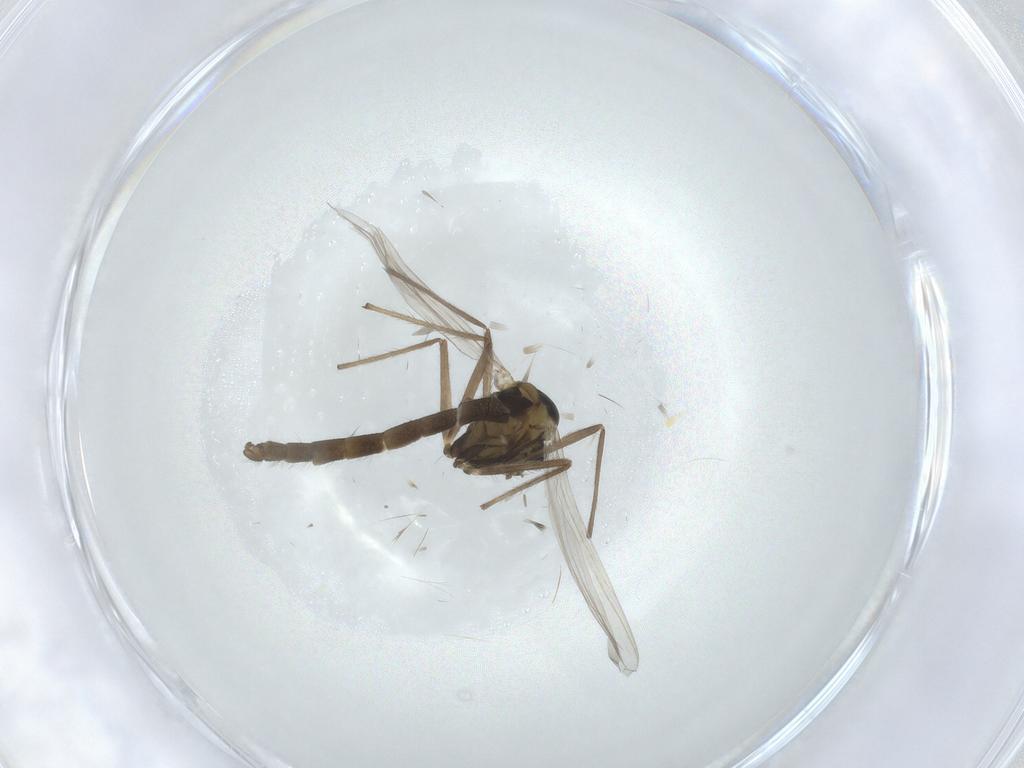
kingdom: Animalia
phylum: Arthropoda
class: Insecta
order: Diptera
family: Chironomidae
